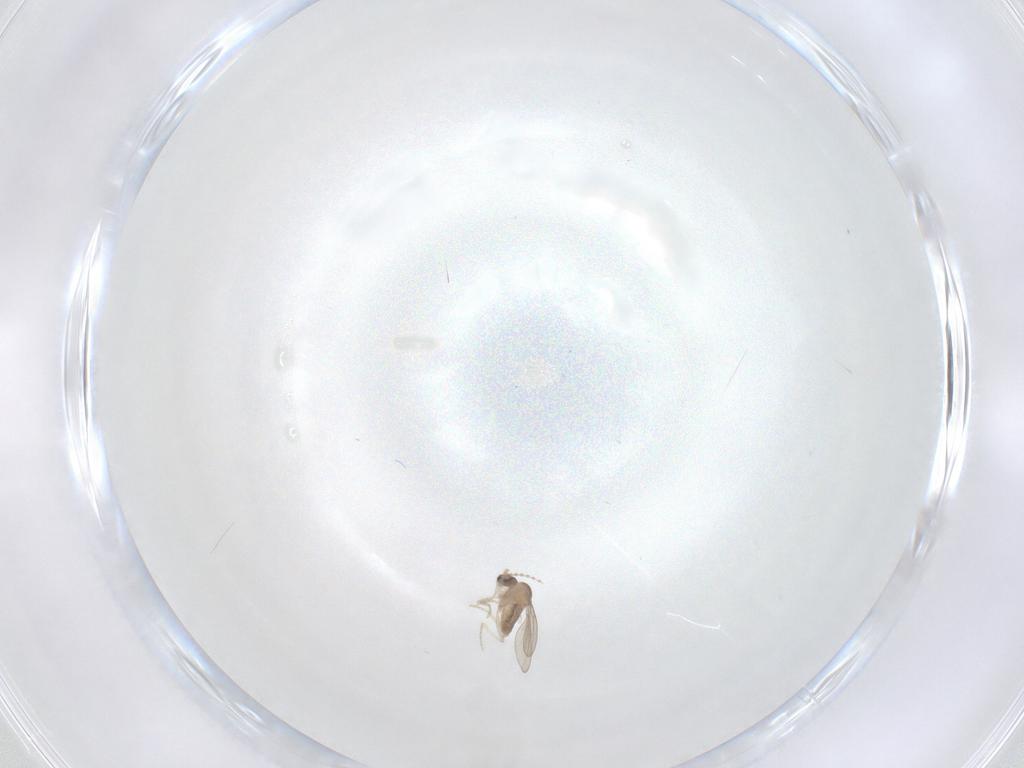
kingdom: Animalia
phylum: Arthropoda
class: Insecta
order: Diptera
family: Cecidomyiidae
